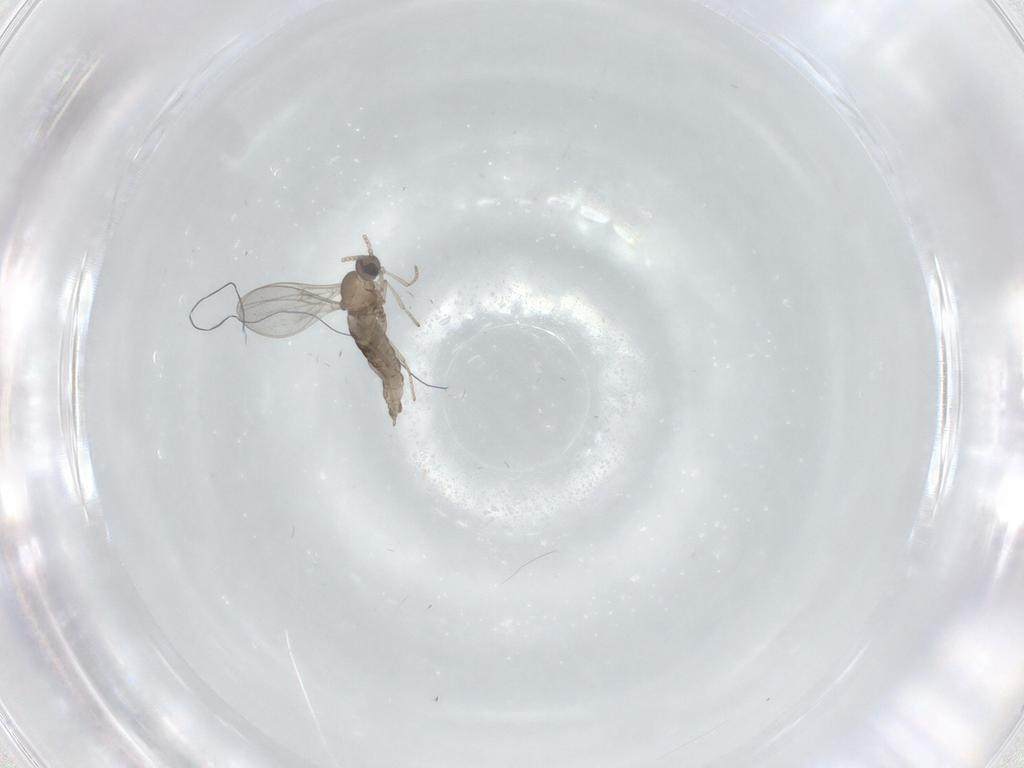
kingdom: Animalia
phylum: Arthropoda
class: Insecta
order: Diptera
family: Cecidomyiidae
